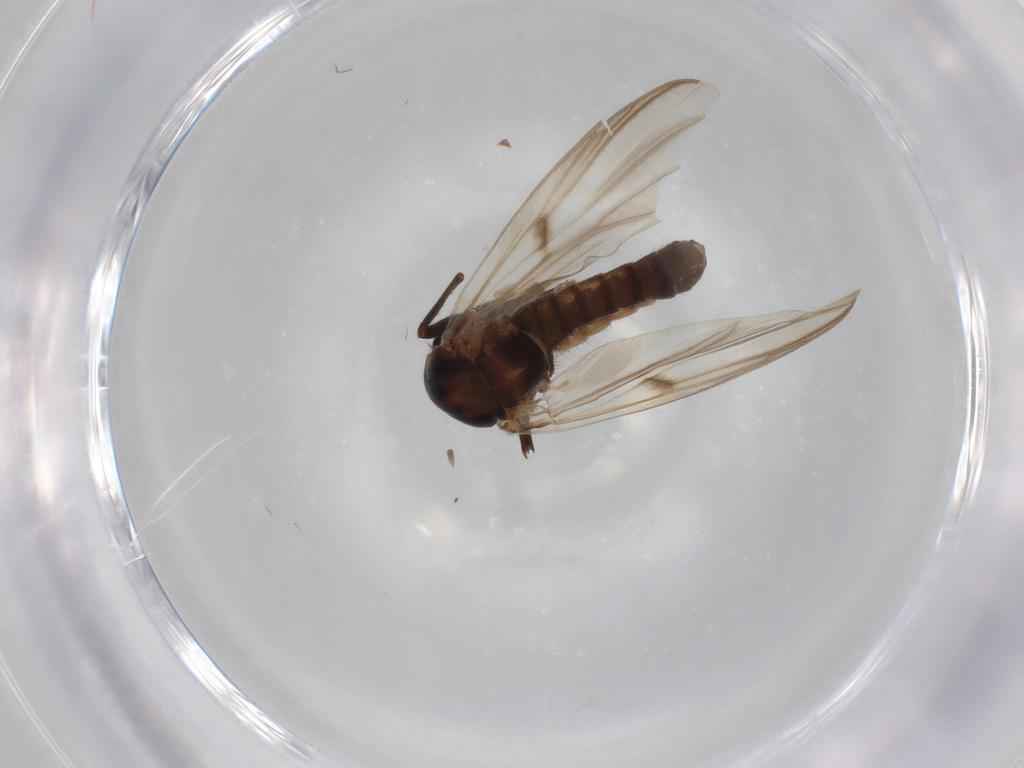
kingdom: Animalia
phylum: Arthropoda
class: Insecta
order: Diptera
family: Chironomidae
